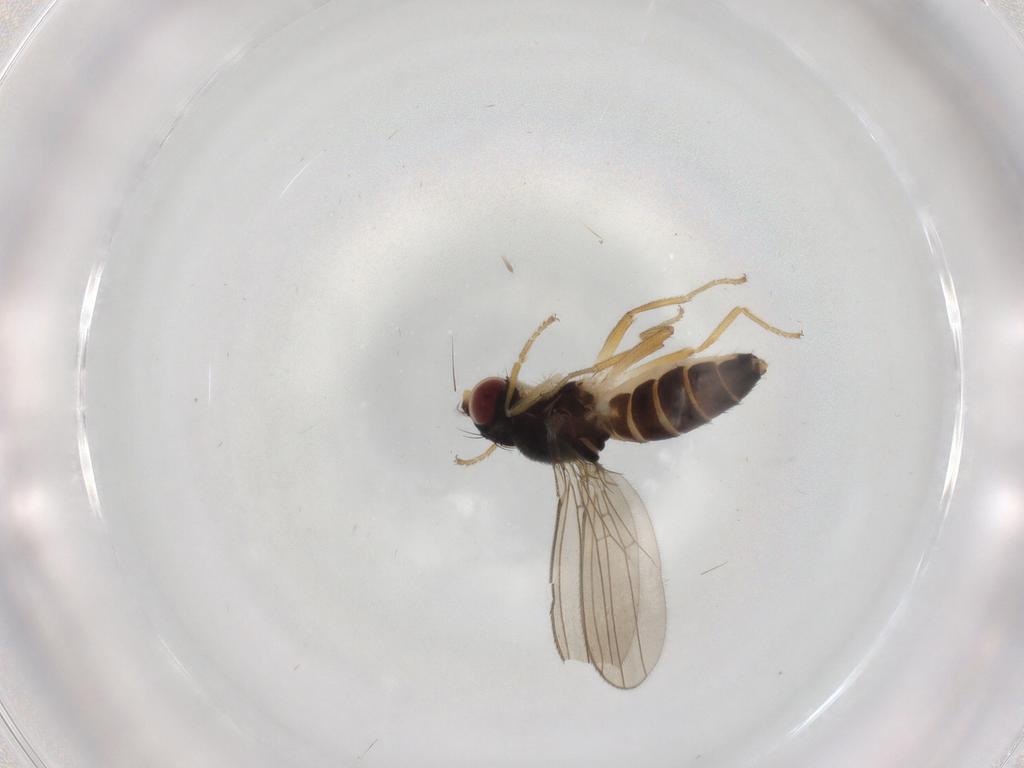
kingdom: Animalia
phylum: Arthropoda
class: Insecta
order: Diptera
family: Anthomyzidae
